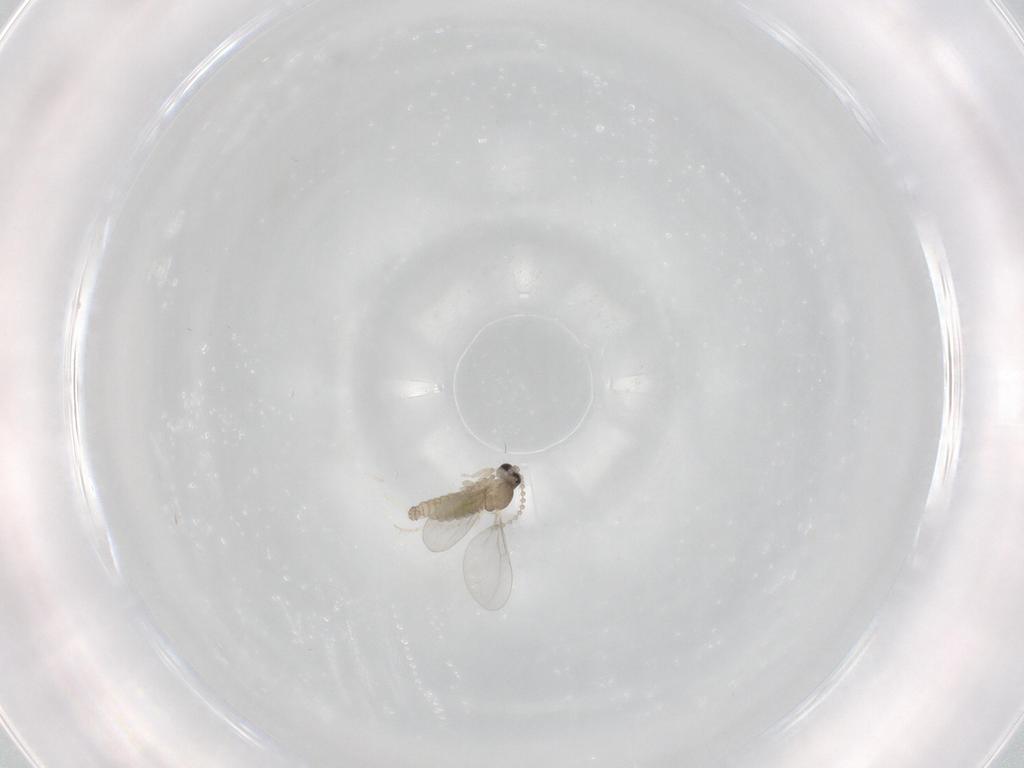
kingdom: Animalia
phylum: Arthropoda
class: Insecta
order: Diptera
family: Cecidomyiidae
